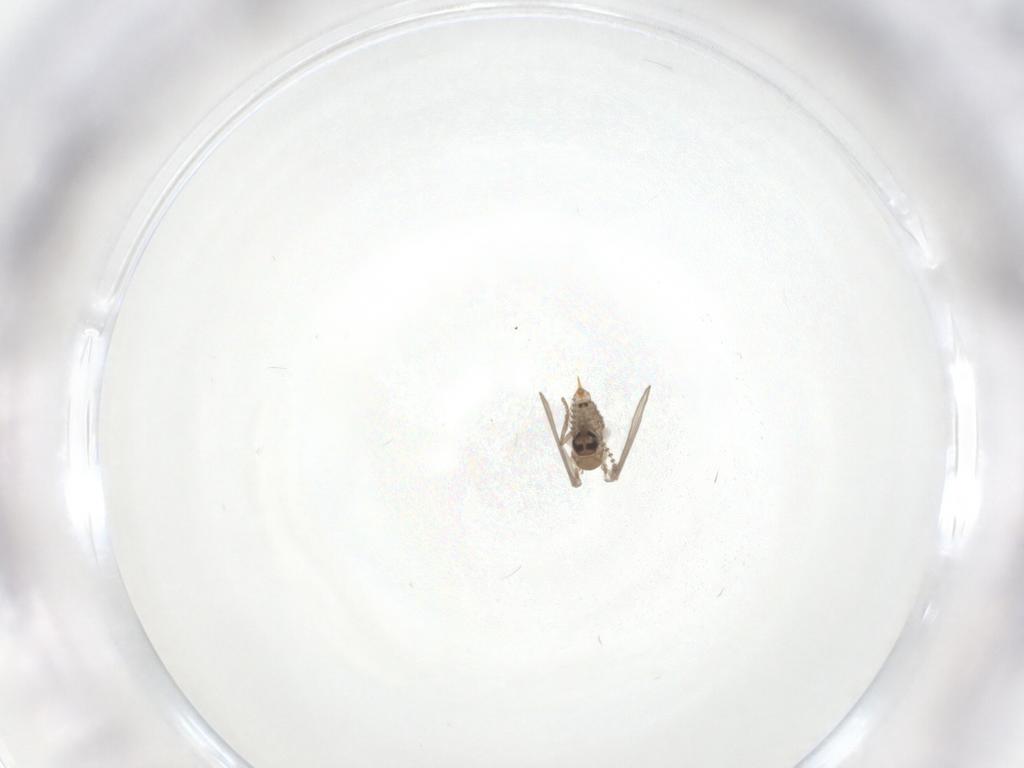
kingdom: Animalia
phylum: Arthropoda
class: Insecta
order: Diptera
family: Psychodidae
